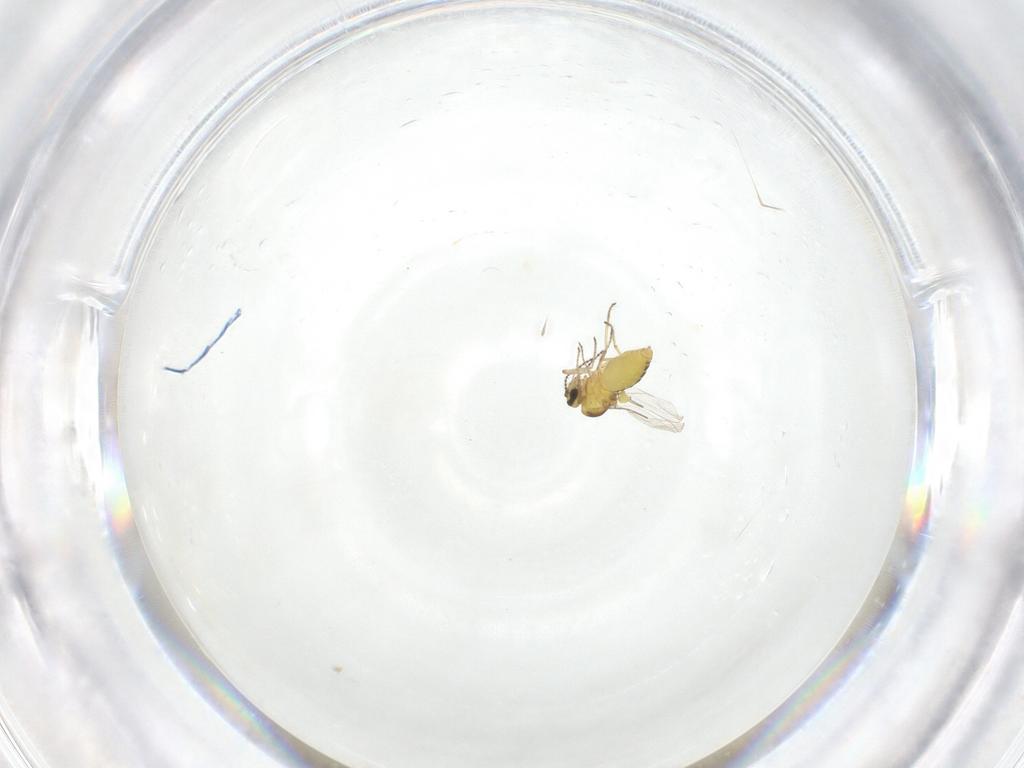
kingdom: Animalia
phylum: Arthropoda
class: Insecta
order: Diptera
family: Ceratopogonidae
